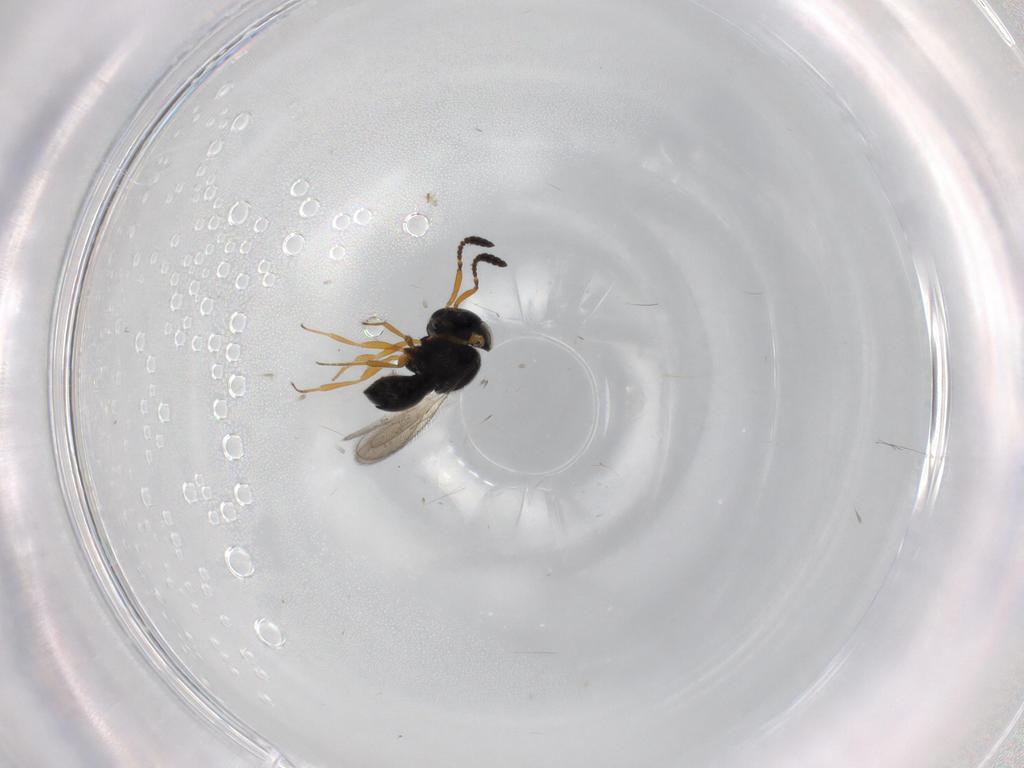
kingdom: Animalia
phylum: Arthropoda
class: Insecta
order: Hymenoptera
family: Scelionidae
